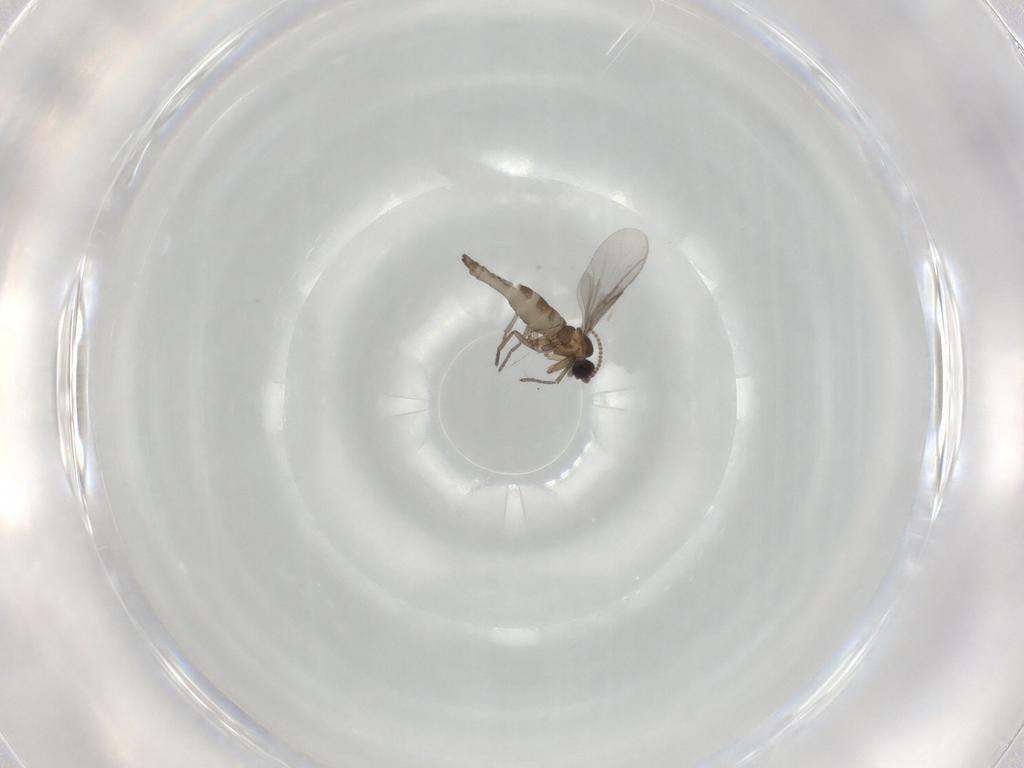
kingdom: Animalia
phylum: Arthropoda
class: Insecta
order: Diptera
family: Sciaridae
